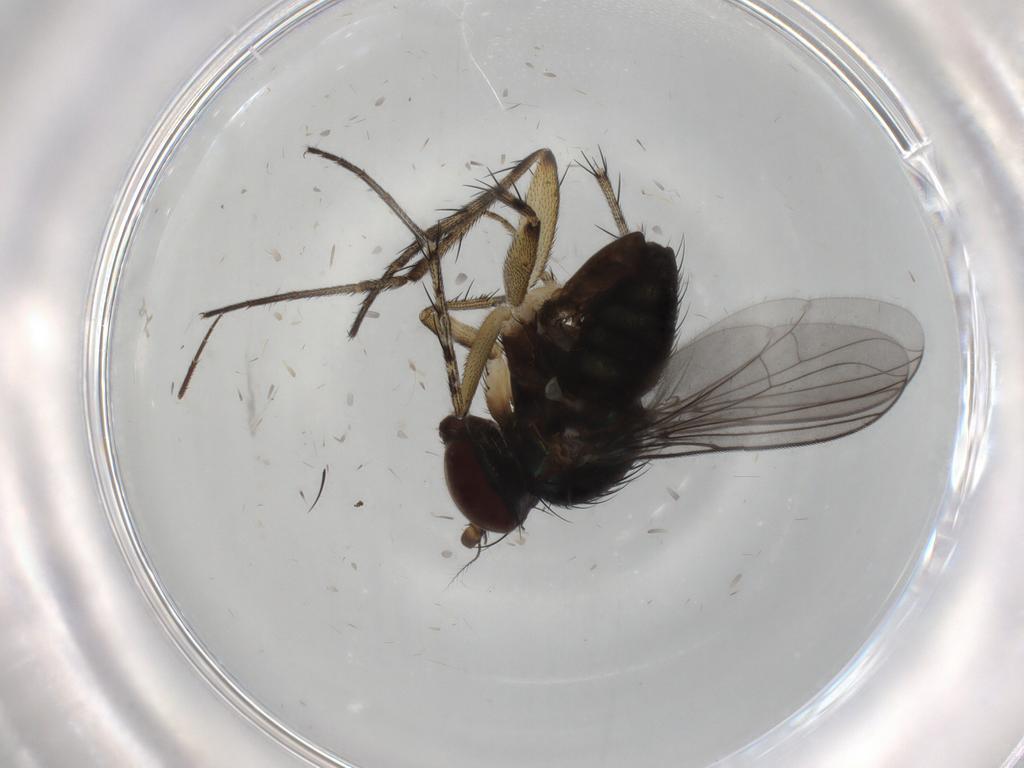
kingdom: Animalia
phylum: Arthropoda
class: Insecta
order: Diptera
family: Dolichopodidae
